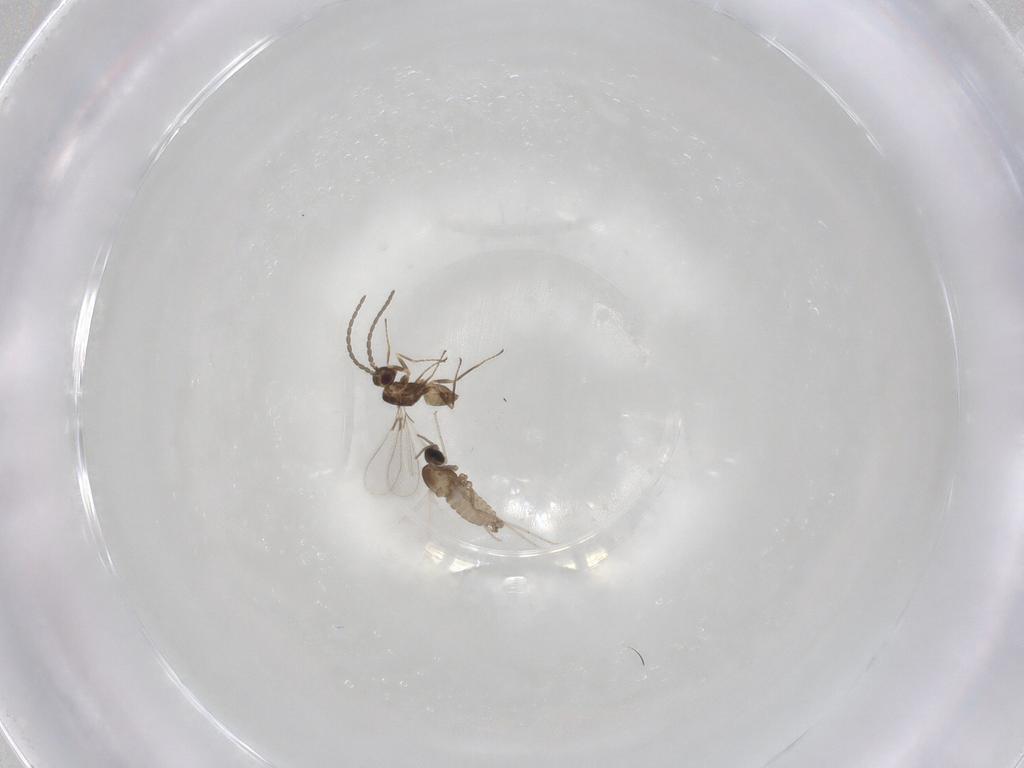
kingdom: Animalia
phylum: Arthropoda
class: Insecta
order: Diptera
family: Cecidomyiidae
